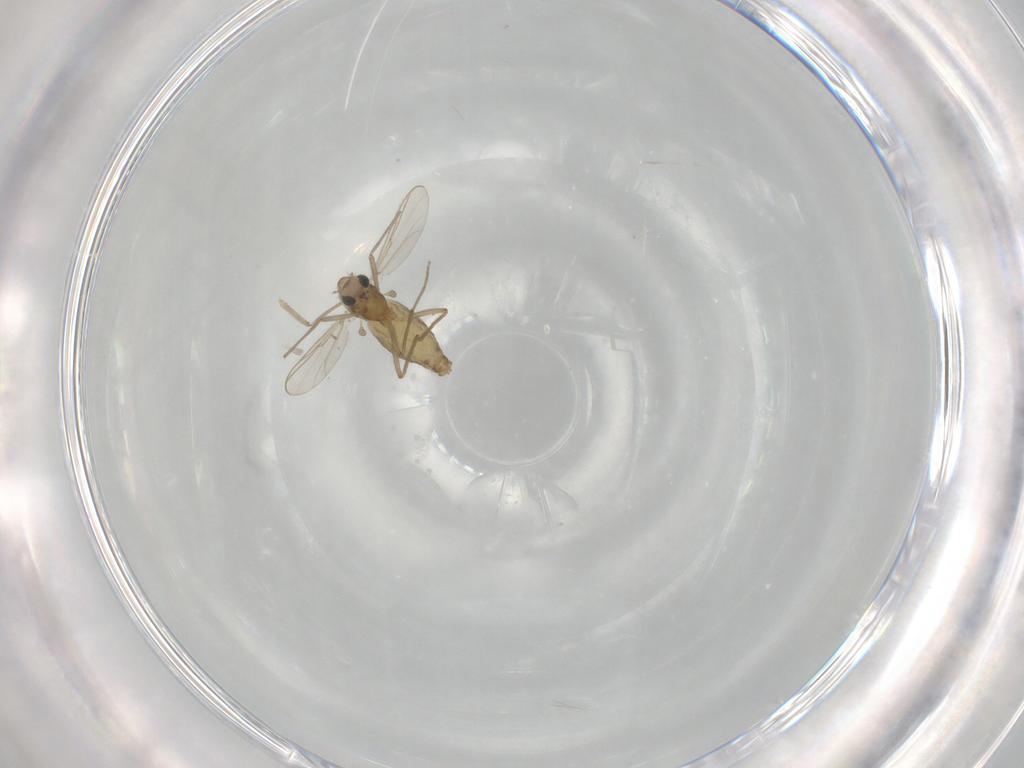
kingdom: Animalia
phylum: Arthropoda
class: Insecta
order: Diptera
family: Chironomidae
